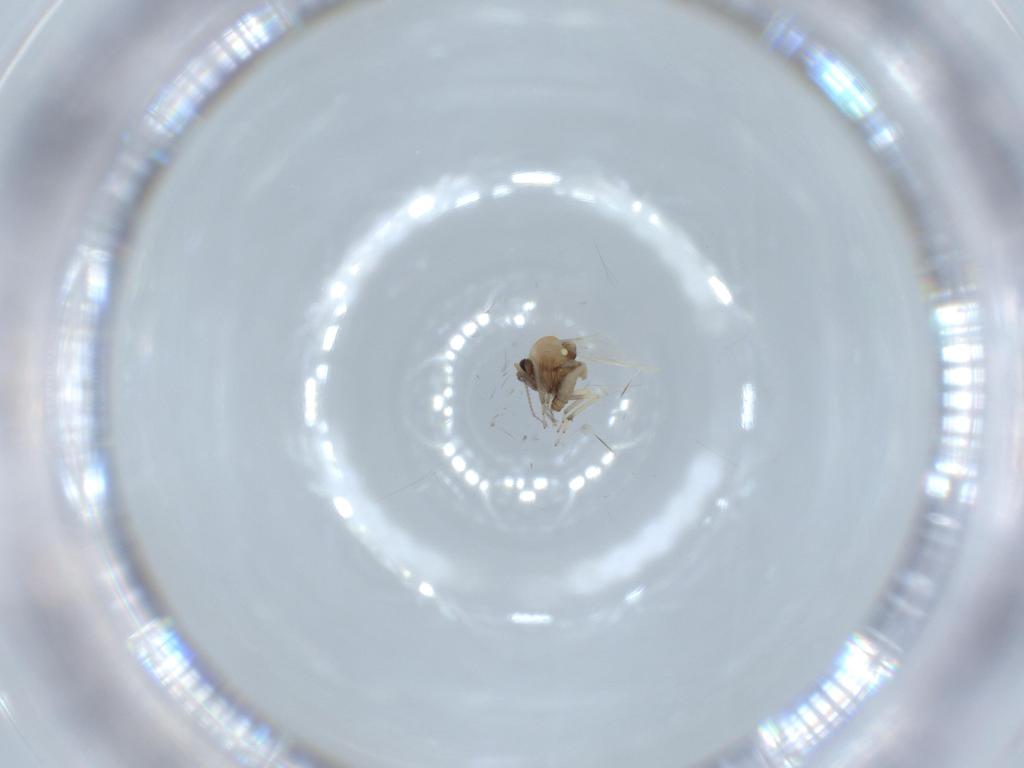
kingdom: Animalia
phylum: Arthropoda
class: Insecta
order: Diptera
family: Ceratopogonidae
